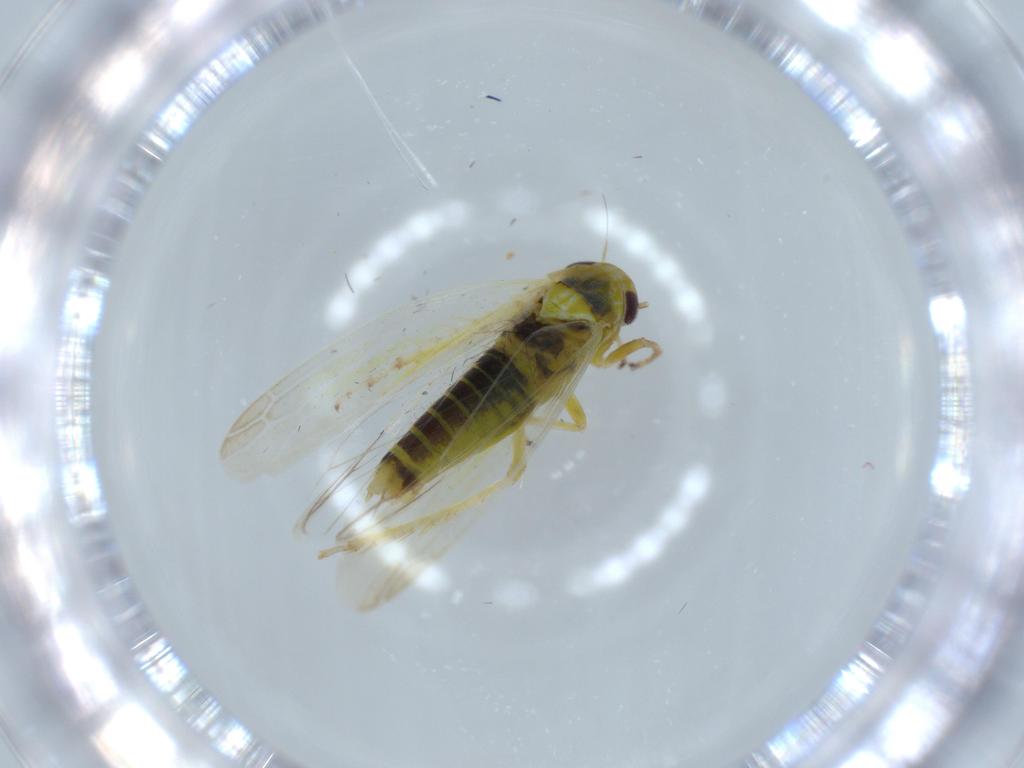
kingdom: Animalia
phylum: Arthropoda
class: Insecta
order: Hemiptera
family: Cicadellidae
